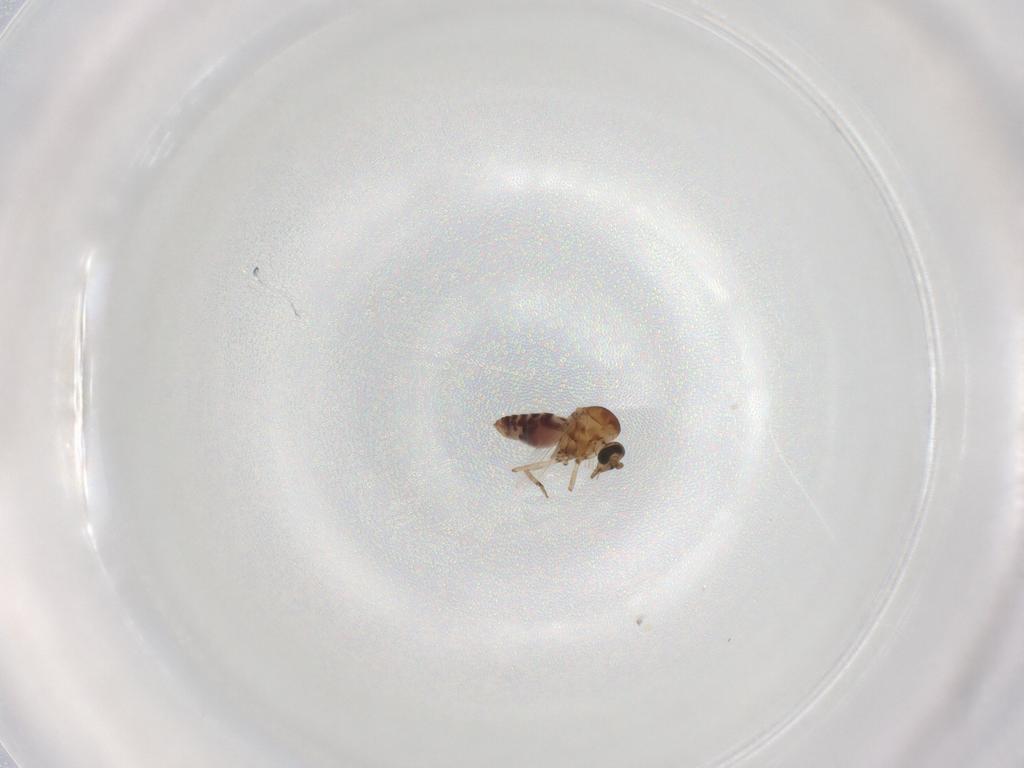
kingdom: Animalia
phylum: Arthropoda
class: Insecta
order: Diptera
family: Ceratopogonidae
